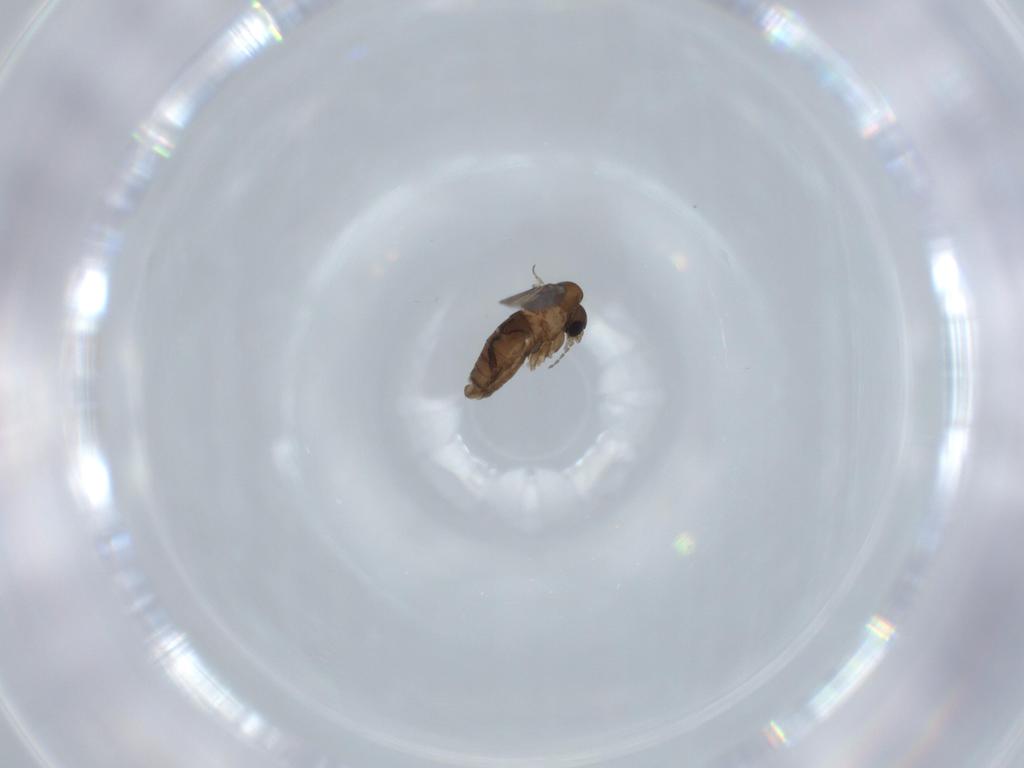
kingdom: Animalia
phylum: Arthropoda
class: Insecta
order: Diptera
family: Psychodidae
